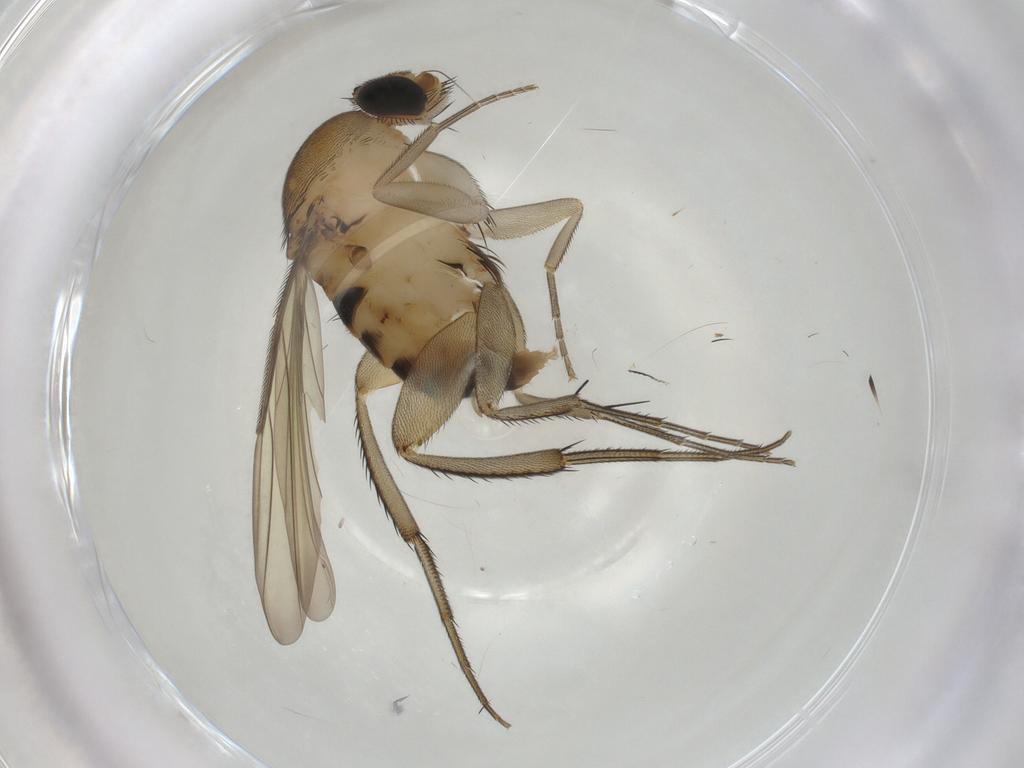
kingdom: Animalia
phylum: Arthropoda
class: Insecta
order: Diptera
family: Phoridae
